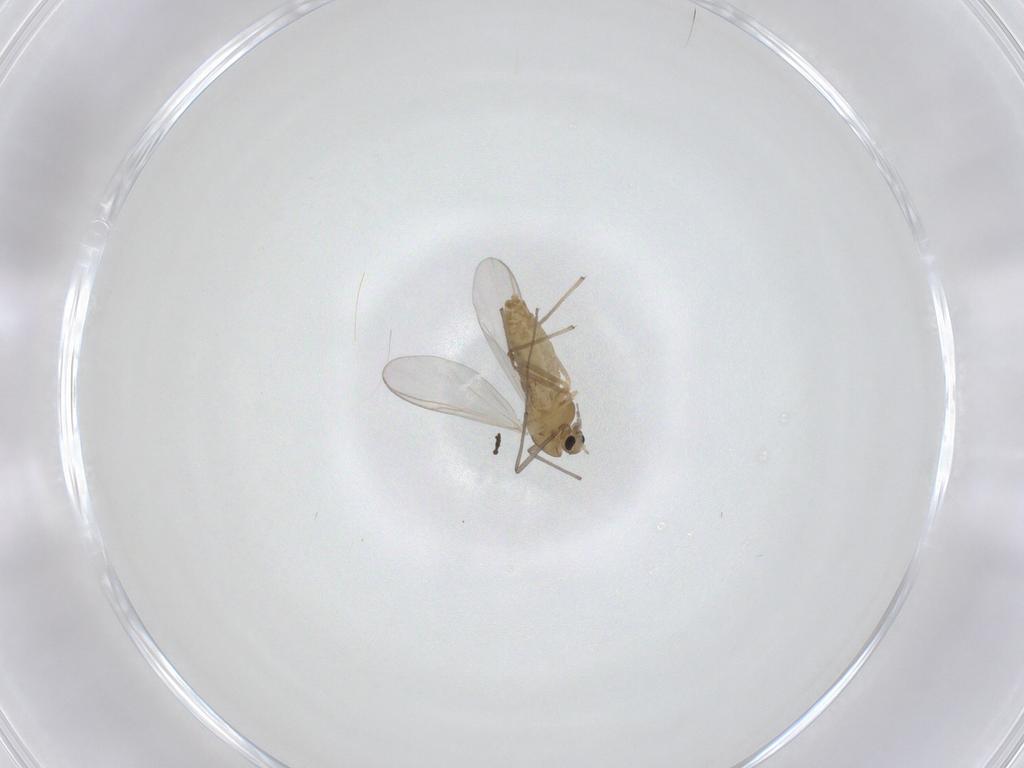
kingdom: Animalia
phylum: Arthropoda
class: Insecta
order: Diptera
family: Chironomidae
